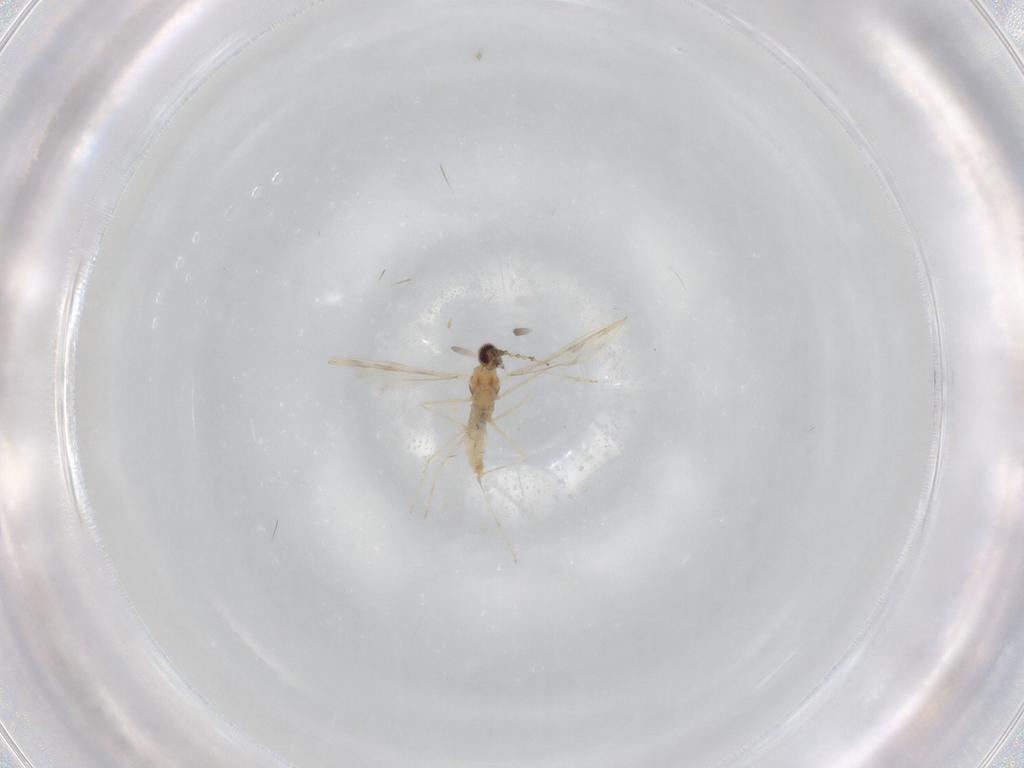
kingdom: Animalia
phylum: Arthropoda
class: Insecta
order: Diptera
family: Cecidomyiidae
